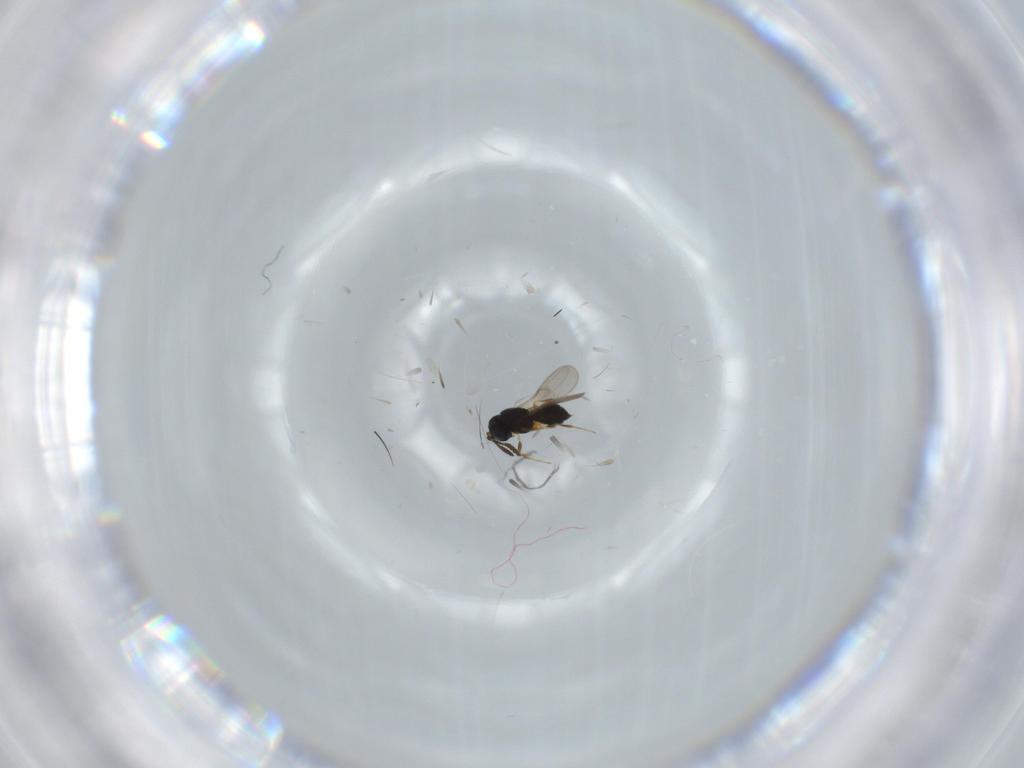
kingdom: Animalia
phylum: Arthropoda
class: Insecta
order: Hymenoptera
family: Scelionidae
